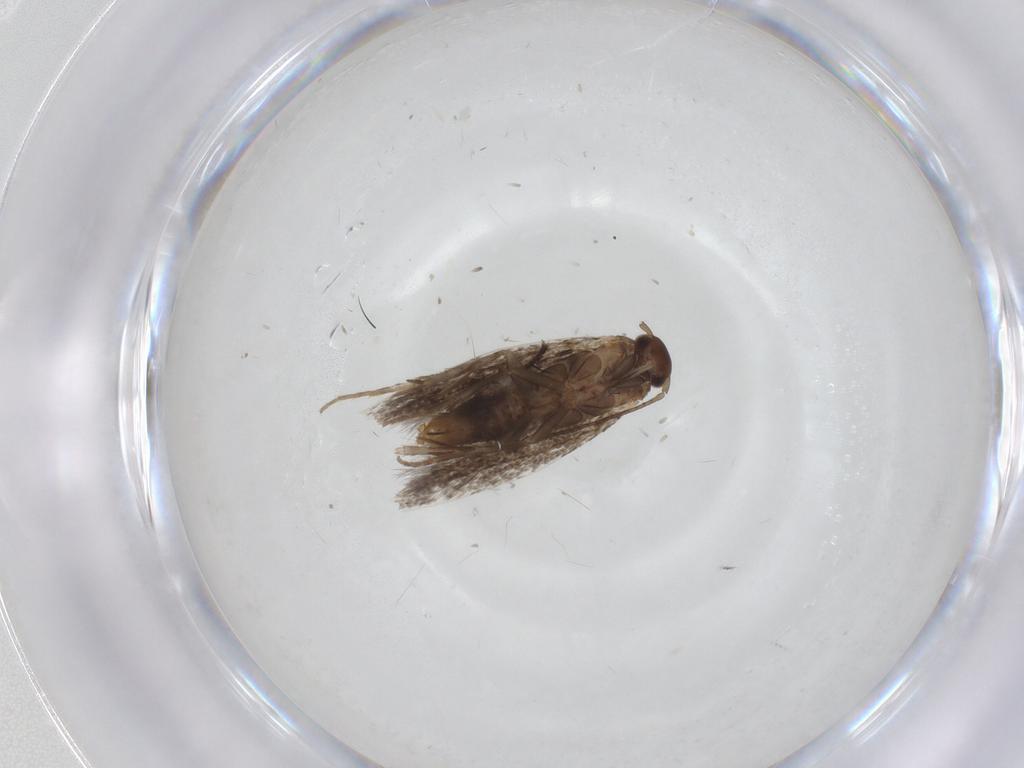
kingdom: Animalia
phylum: Arthropoda
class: Insecta
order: Lepidoptera
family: Elachistidae
